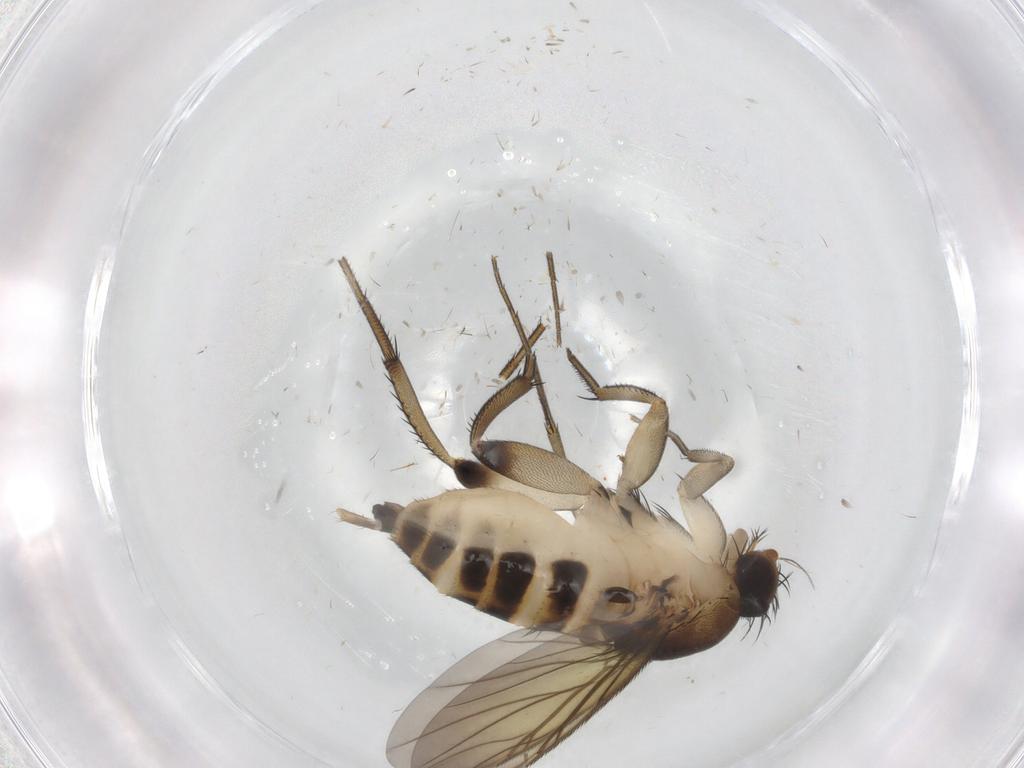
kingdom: Animalia
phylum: Arthropoda
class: Insecta
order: Diptera
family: Phoridae
